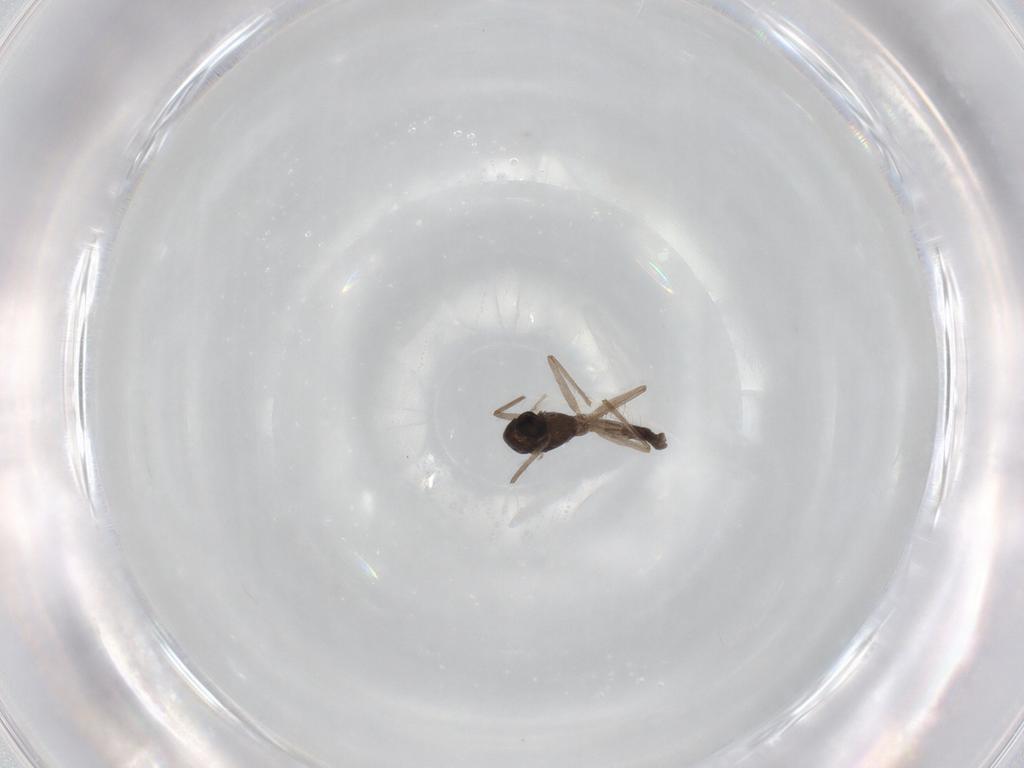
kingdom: Animalia
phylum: Arthropoda
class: Insecta
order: Diptera
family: Chironomidae
